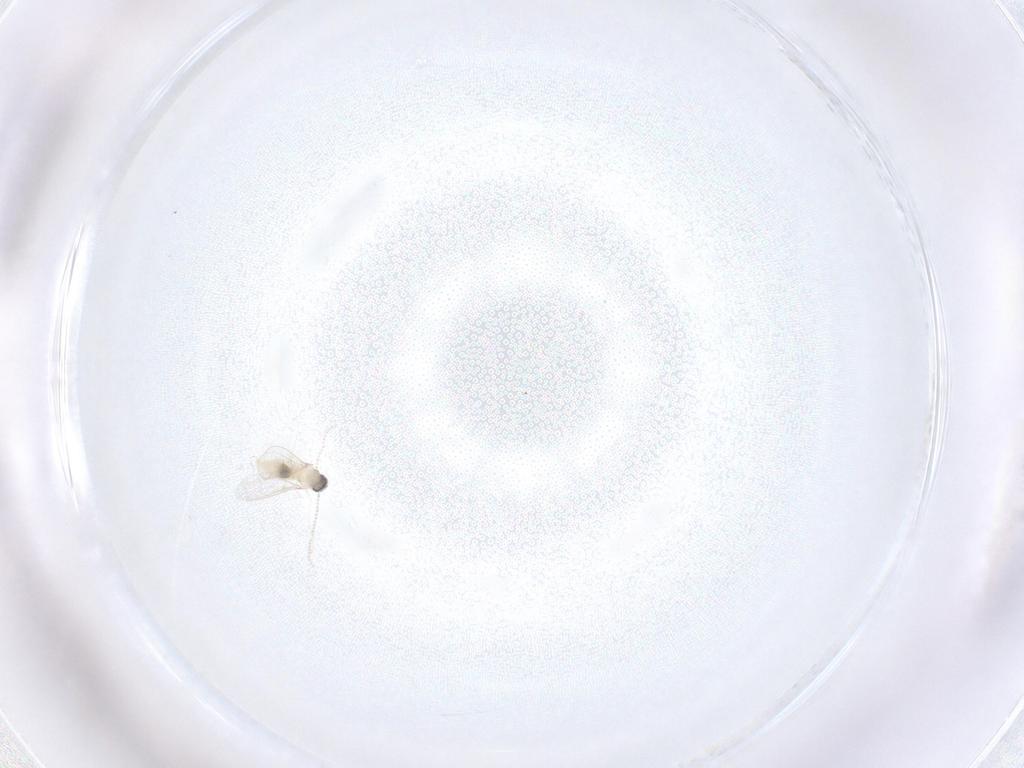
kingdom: Animalia
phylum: Arthropoda
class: Insecta
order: Diptera
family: Cecidomyiidae
